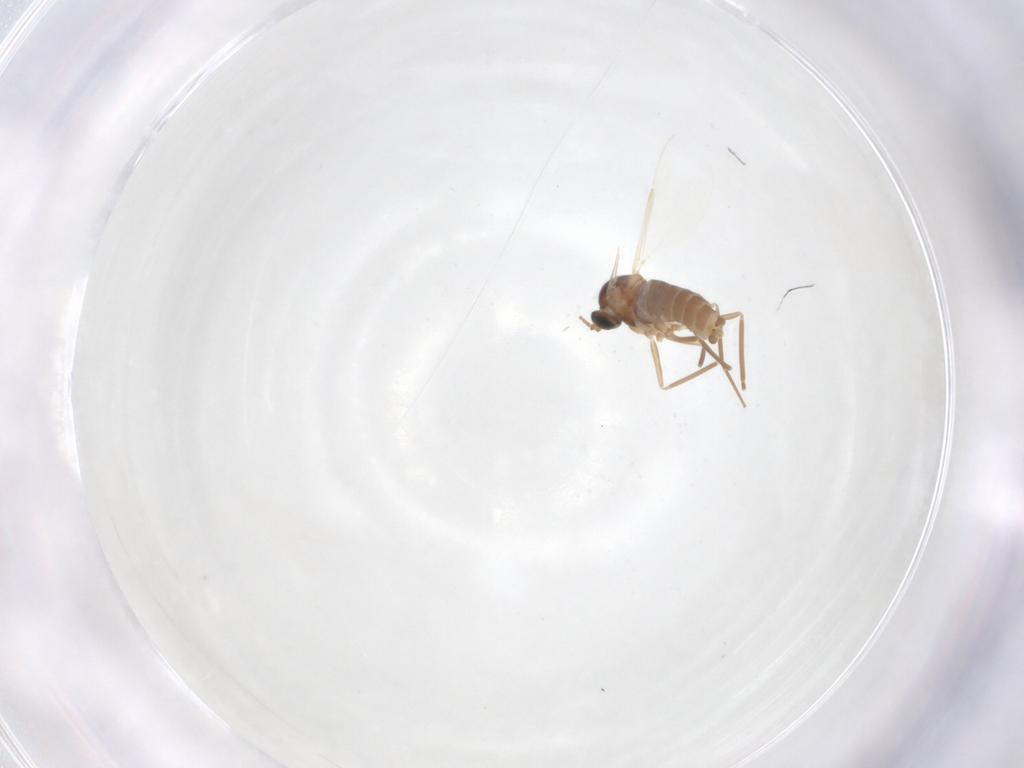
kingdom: Animalia
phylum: Arthropoda
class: Insecta
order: Diptera
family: Cecidomyiidae
